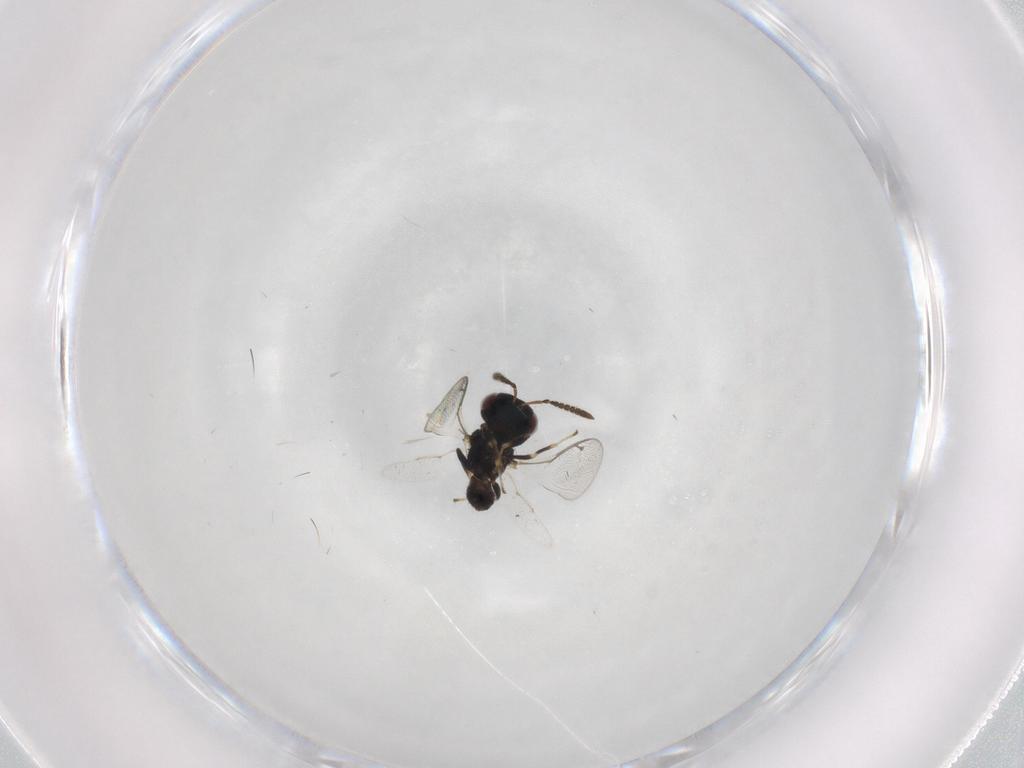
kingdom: Animalia
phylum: Arthropoda
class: Insecta
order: Hymenoptera
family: Pteromalidae
